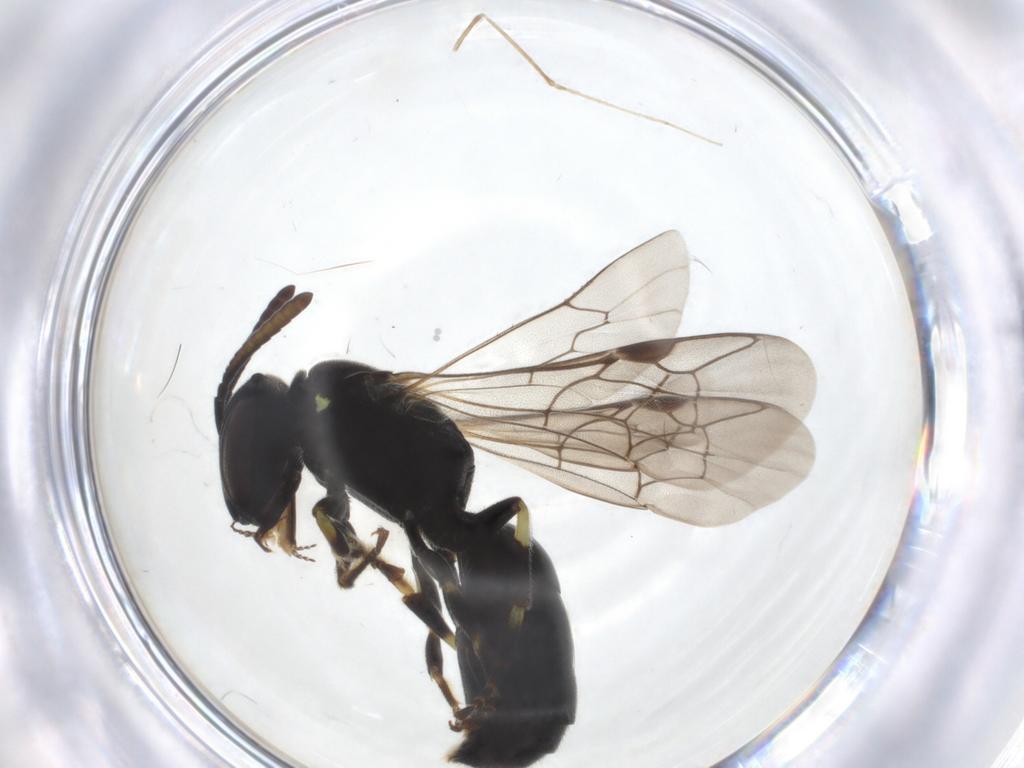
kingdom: Animalia
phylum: Arthropoda
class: Insecta
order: Hymenoptera
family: Colletidae
